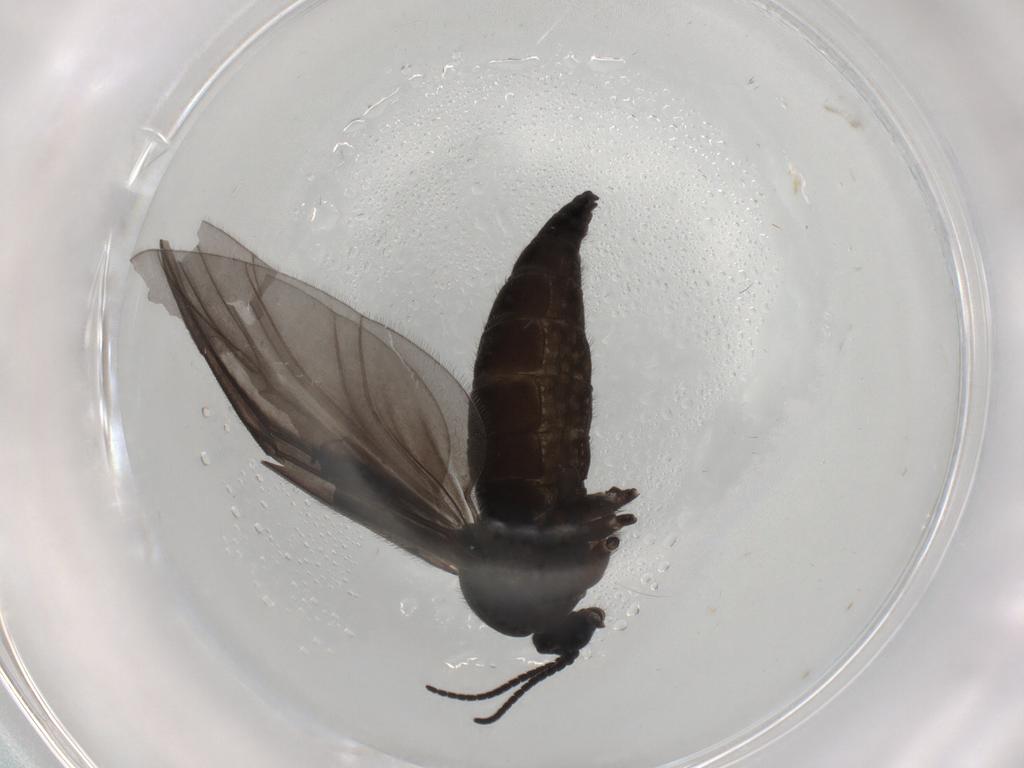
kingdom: Animalia
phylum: Arthropoda
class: Insecta
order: Diptera
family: Sciaridae
